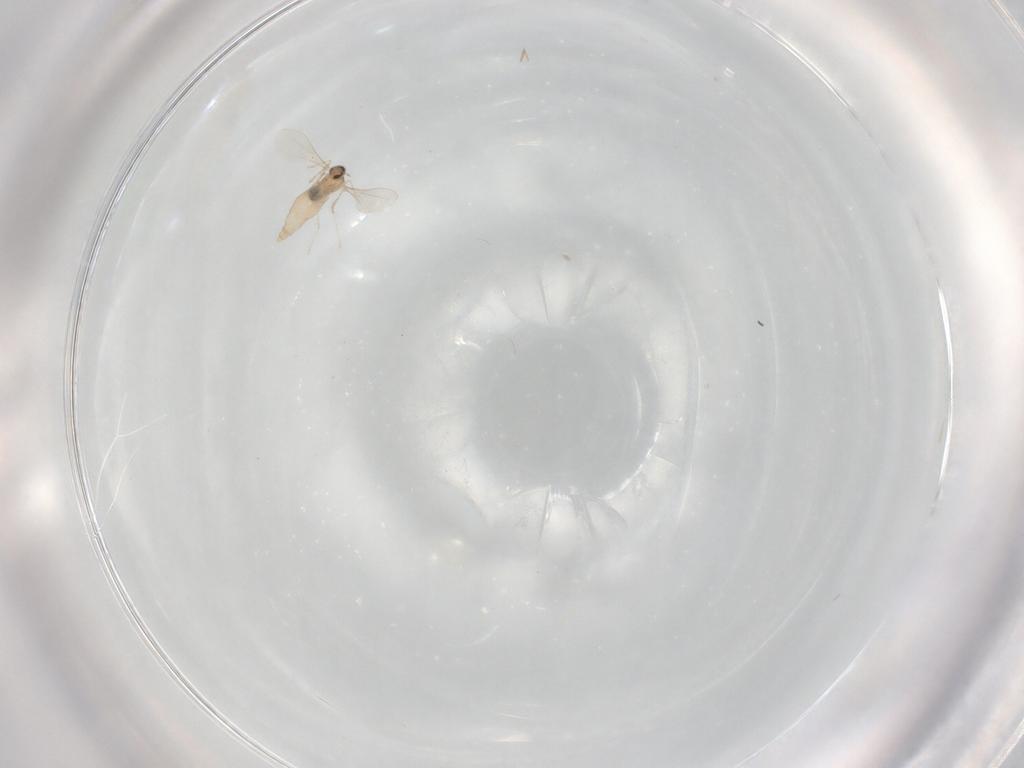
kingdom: Animalia
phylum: Arthropoda
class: Insecta
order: Diptera
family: Cecidomyiidae
